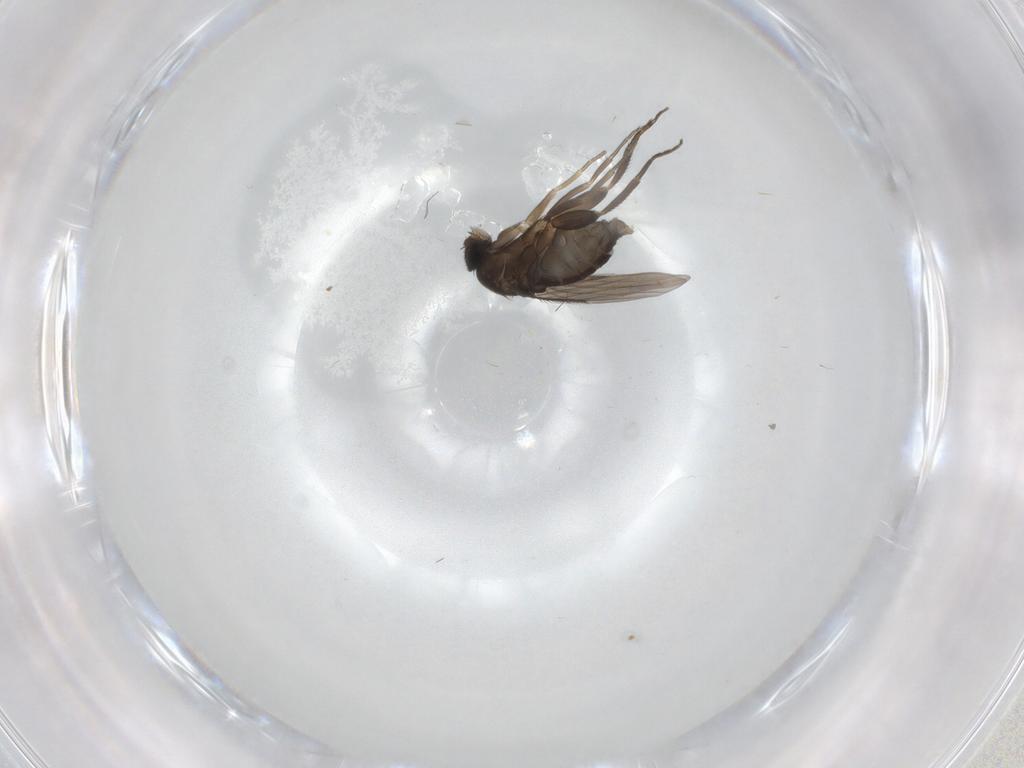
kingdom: Animalia
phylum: Arthropoda
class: Insecta
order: Diptera
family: Phoridae
